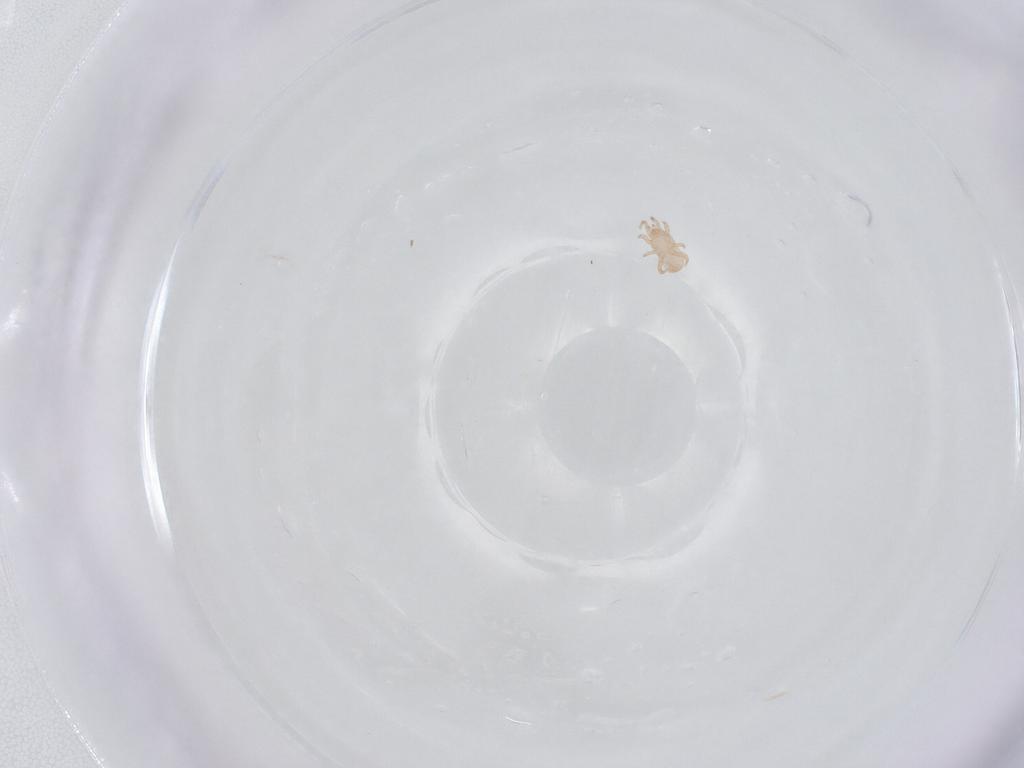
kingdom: Animalia
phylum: Arthropoda
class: Arachnida
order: Mesostigmata
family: Digamasellidae
